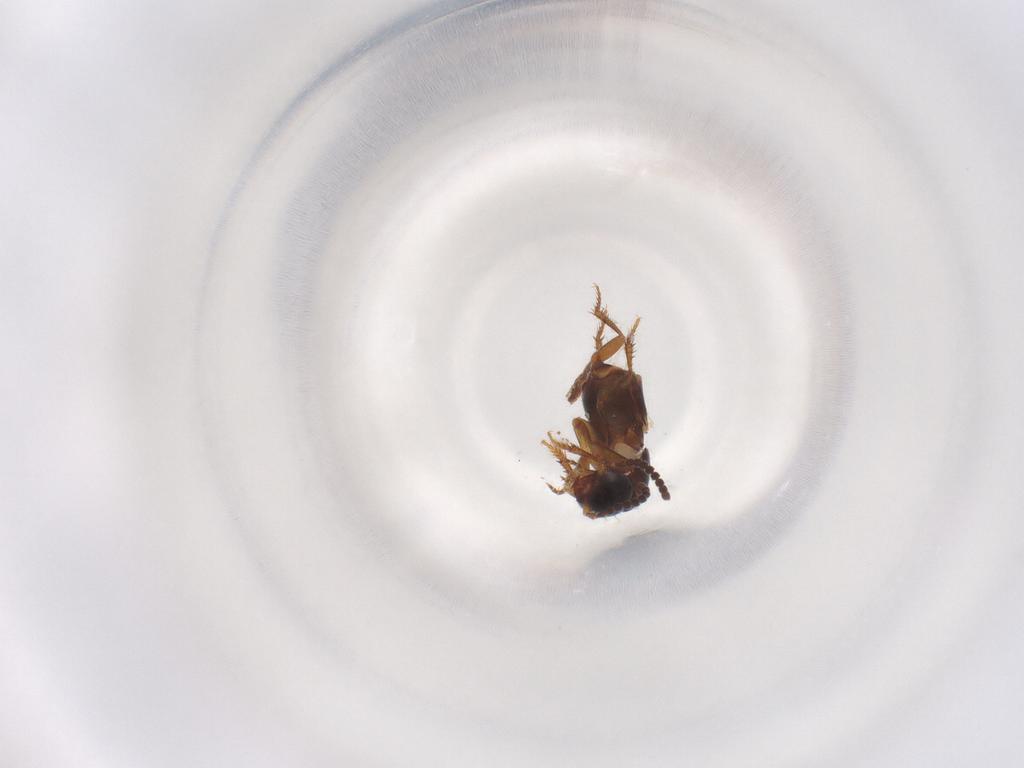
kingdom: Animalia
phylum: Arthropoda
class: Insecta
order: Coleoptera
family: Staphylinidae
